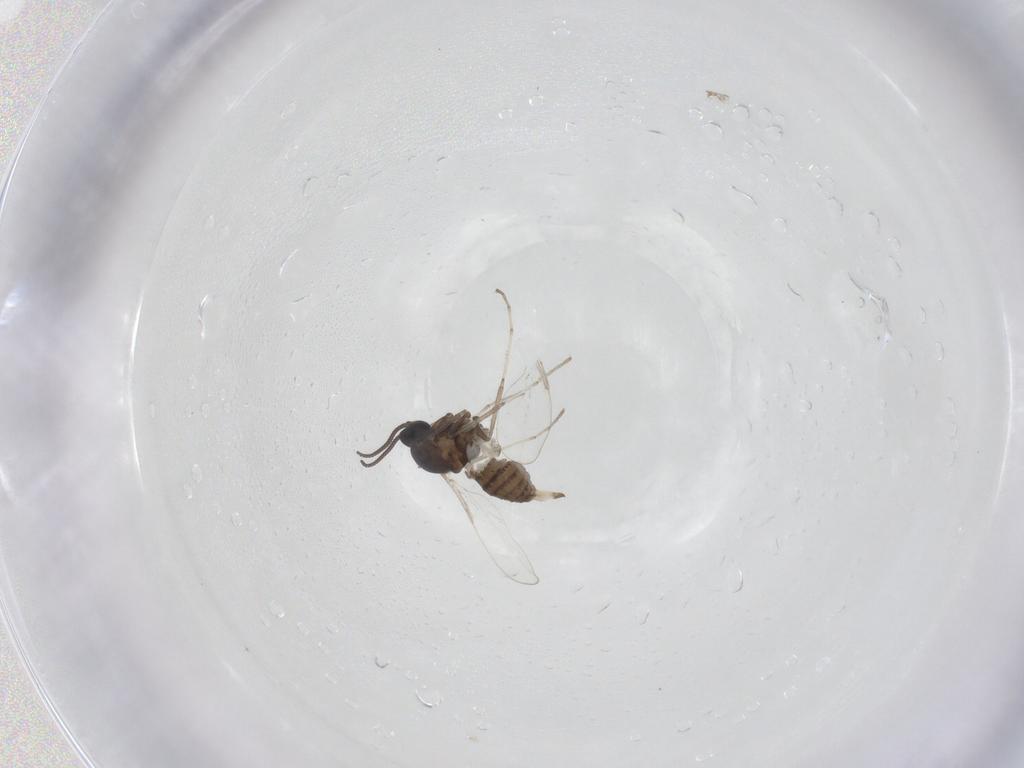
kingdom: Animalia
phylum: Arthropoda
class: Insecta
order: Diptera
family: Cecidomyiidae
